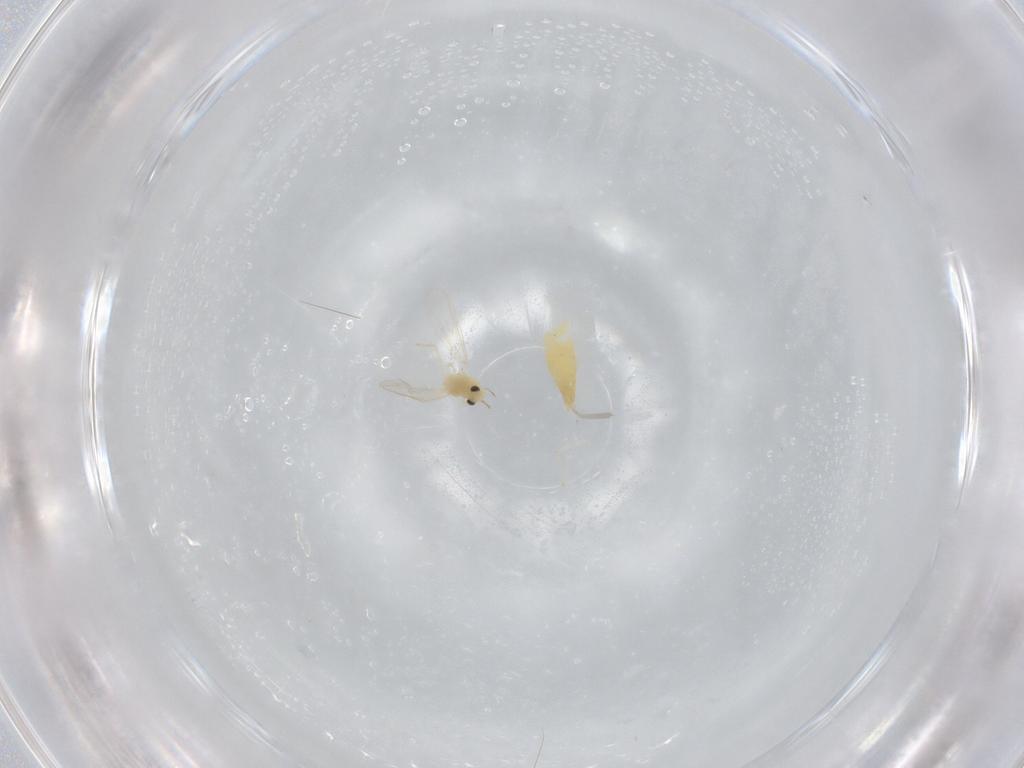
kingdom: Animalia
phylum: Arthropoda
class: Insecta
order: Diptera
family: Chironomidae
